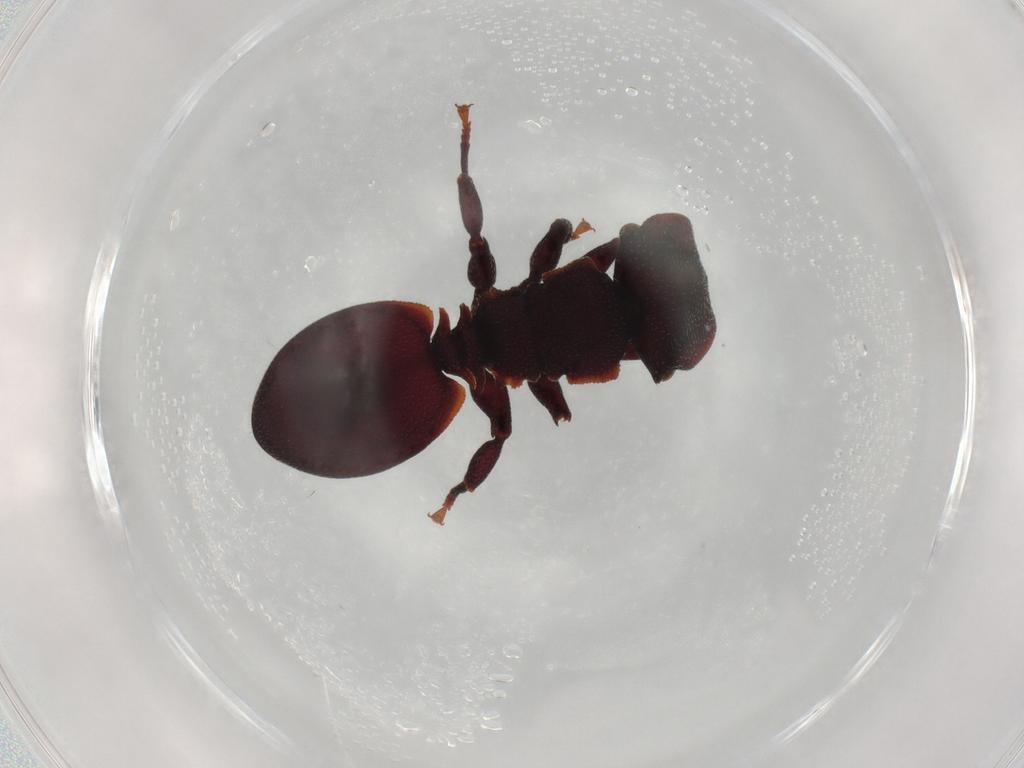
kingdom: Animalia
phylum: Arthropoda
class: Insecta
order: Hymenoptera
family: Formicidae
